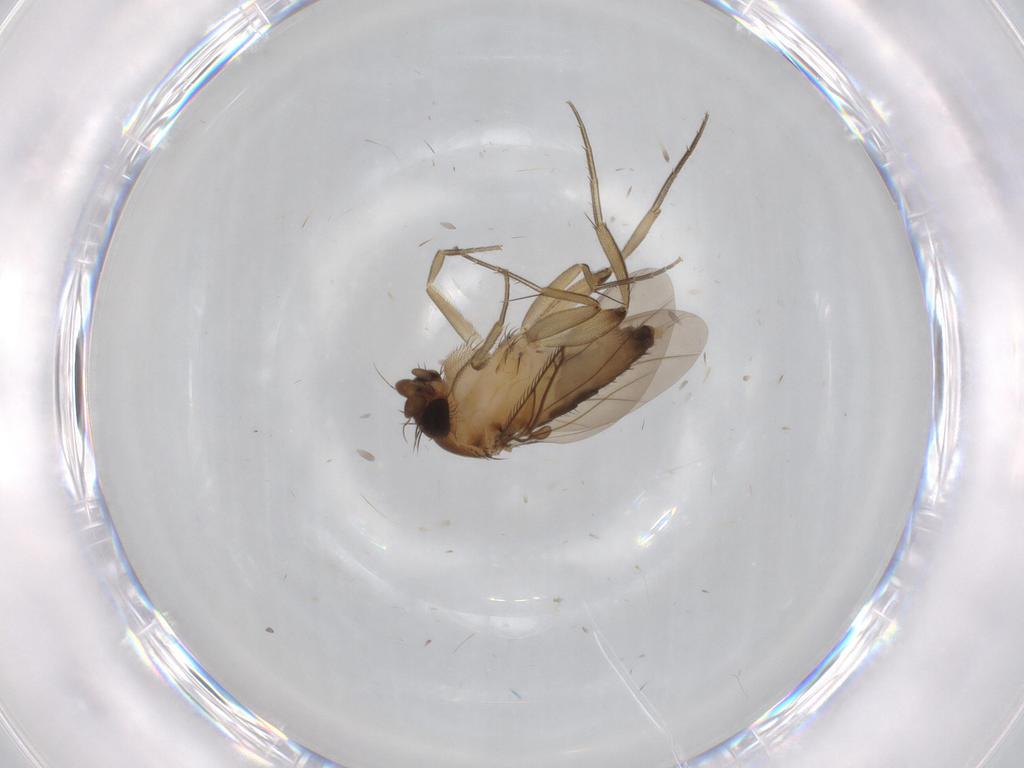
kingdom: Animalia
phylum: Arthropoda
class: Insecta
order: Diptera
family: Phoridae
